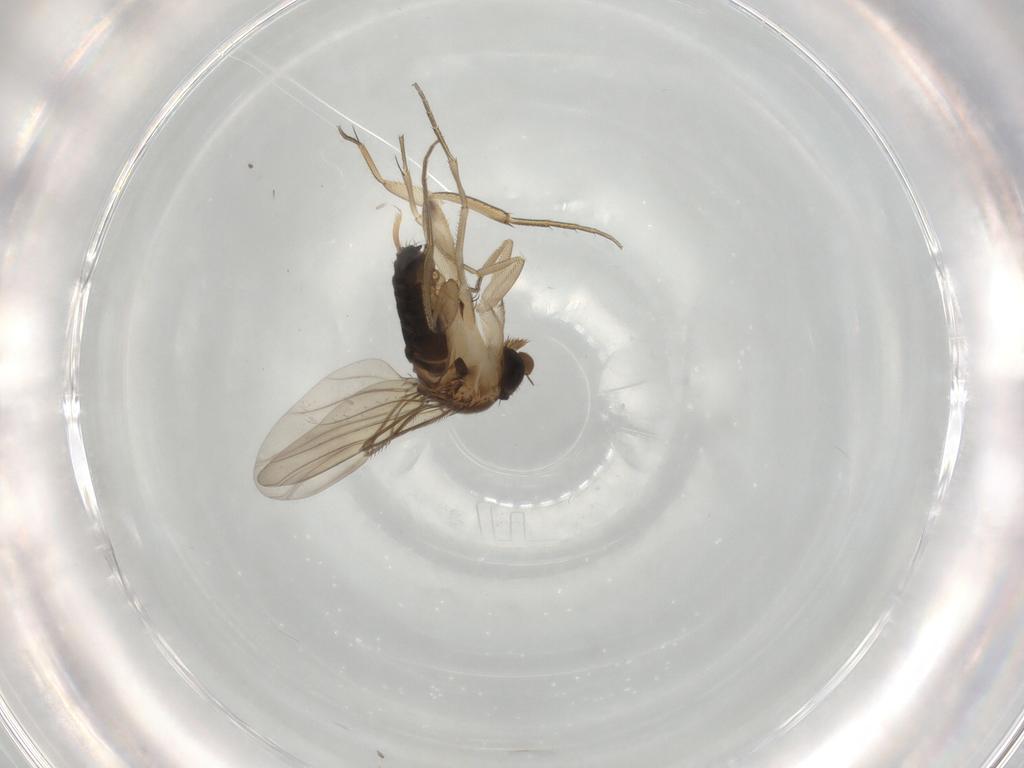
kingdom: Animalia
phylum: Arthropoda
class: Insecta
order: Diptera
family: Phoridae
